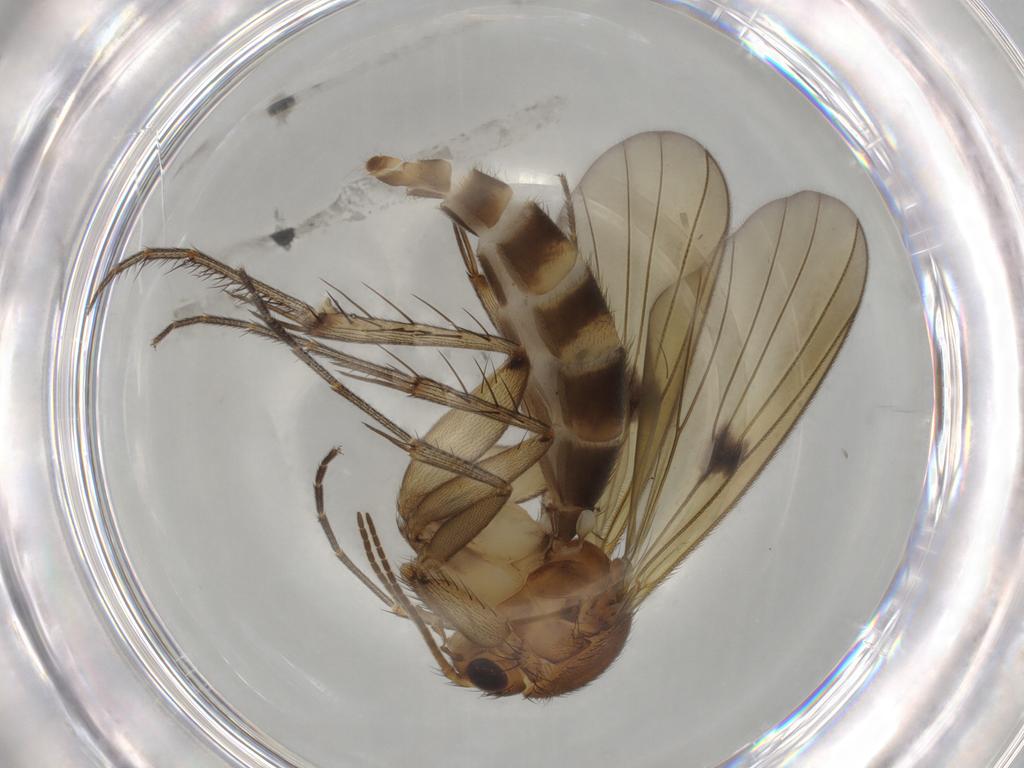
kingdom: Animalia
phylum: Arthropoda
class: Insecta
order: Diptera
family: Mycetophilidae
